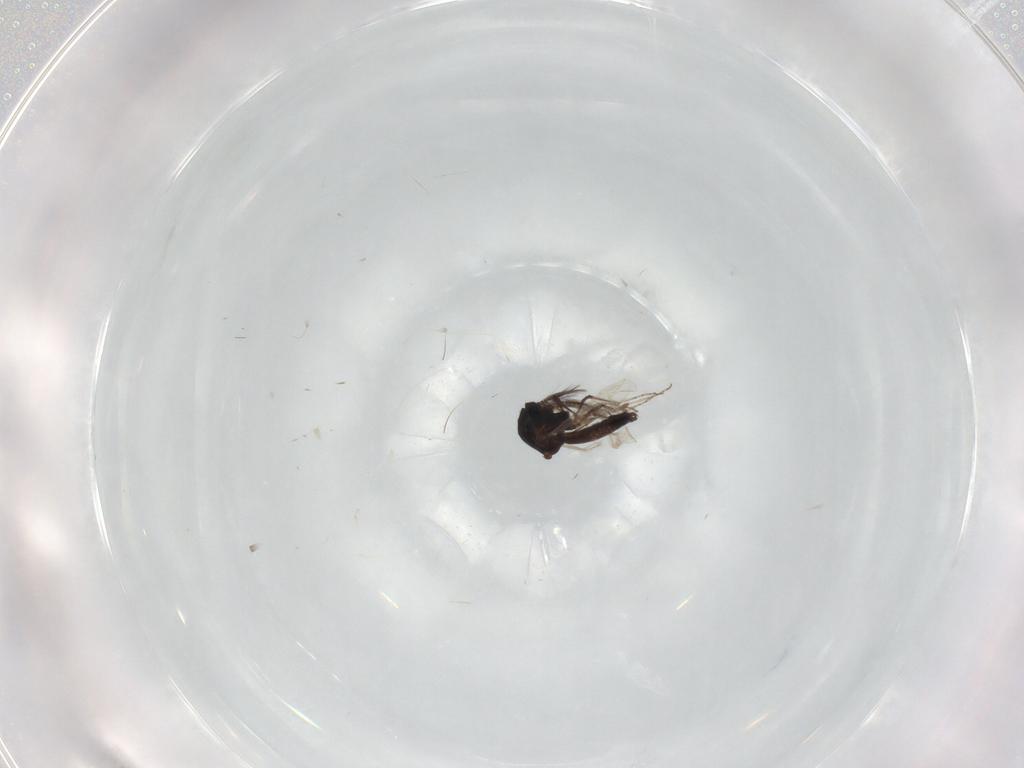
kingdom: Animalia
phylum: Arthropoda
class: Insecta
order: Diptera
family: Ceratopogonidae
